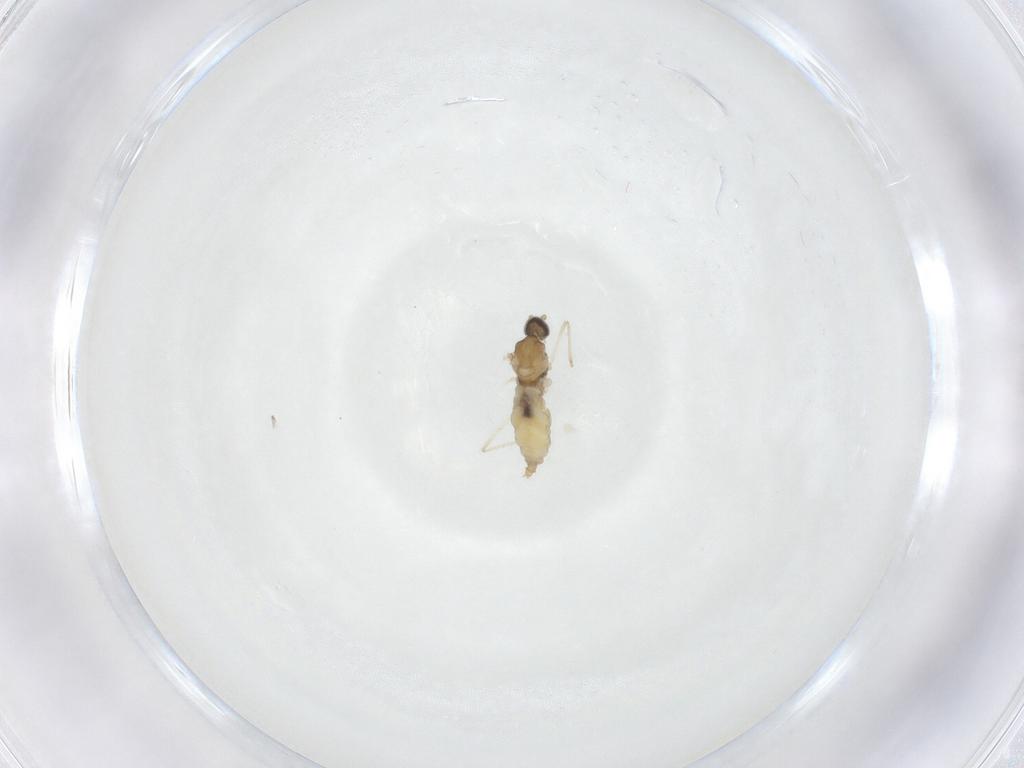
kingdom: Animalia
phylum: Arthropoda
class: Insecta
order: Diptera
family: Cecidomyiidae
